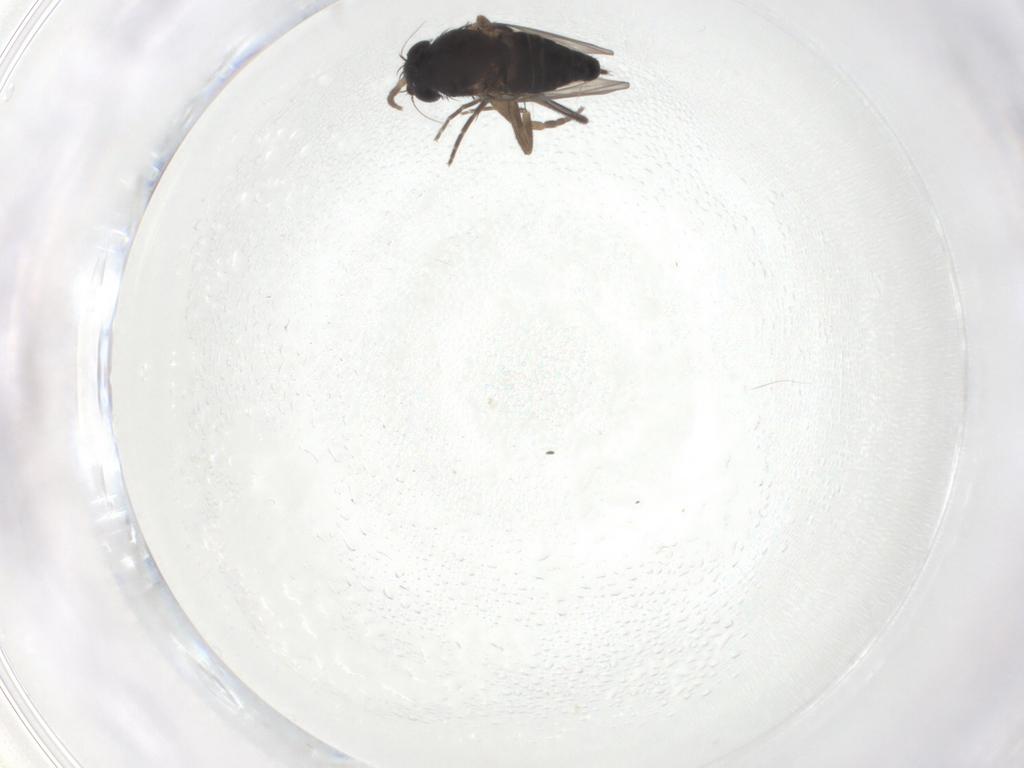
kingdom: Animalia
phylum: Arthropoda
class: Insecta
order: Diptera
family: Phoridae
